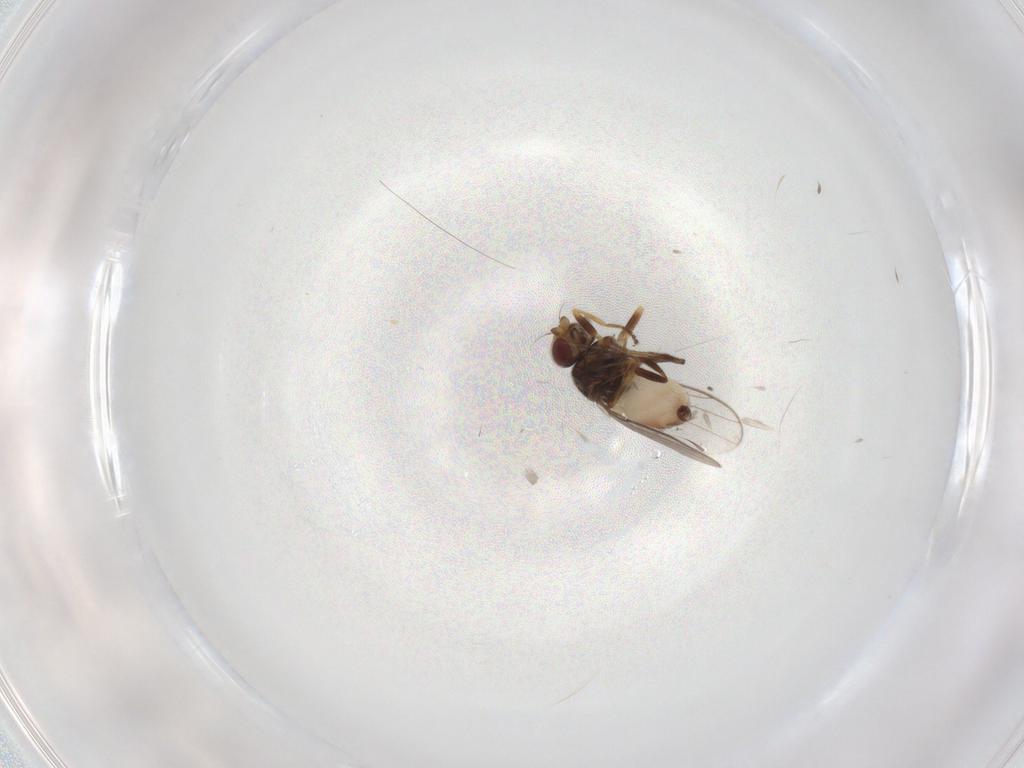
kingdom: Animalia
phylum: Arthropoda
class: Insecta
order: Diptera
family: Chloropidae
